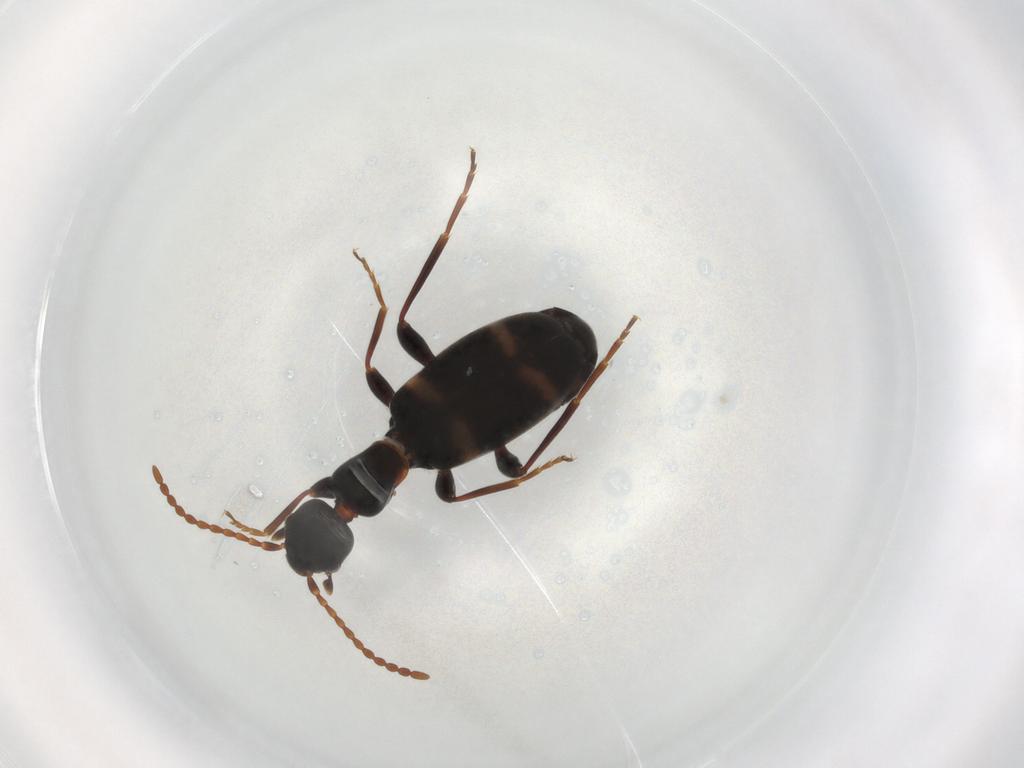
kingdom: Animalia
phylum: Arthropoda
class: Insecta
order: Coleoptera
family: Anthicidae
